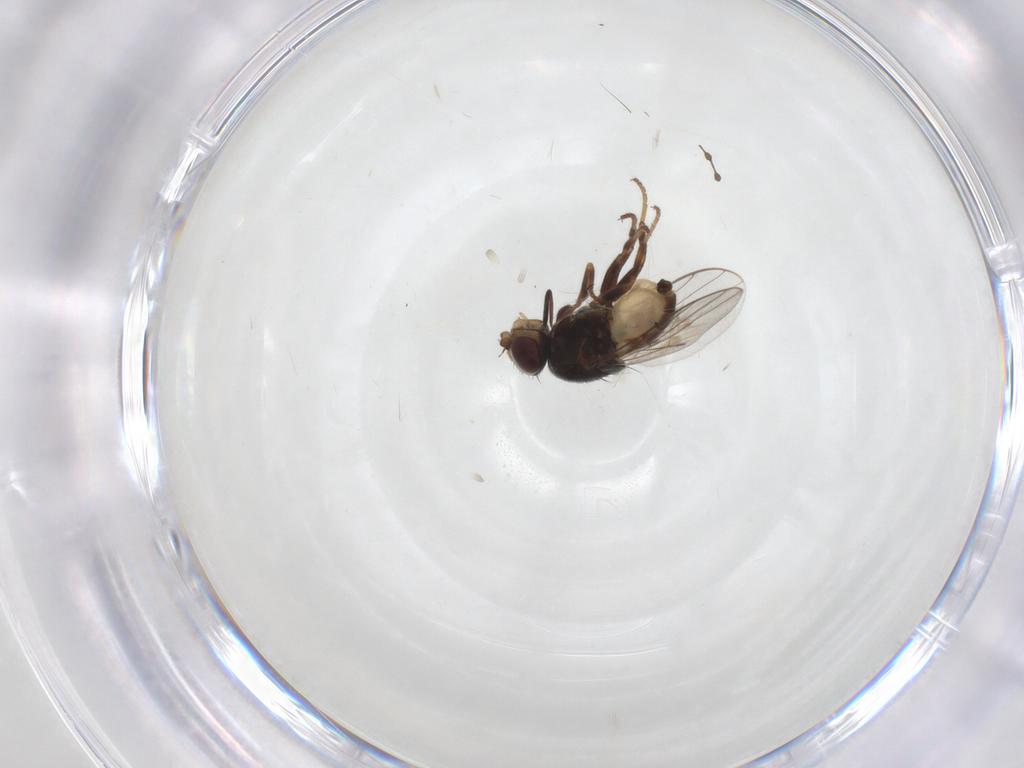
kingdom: Animalia
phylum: Arthropoda
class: Insecta
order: Diptera
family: Chloropidae
